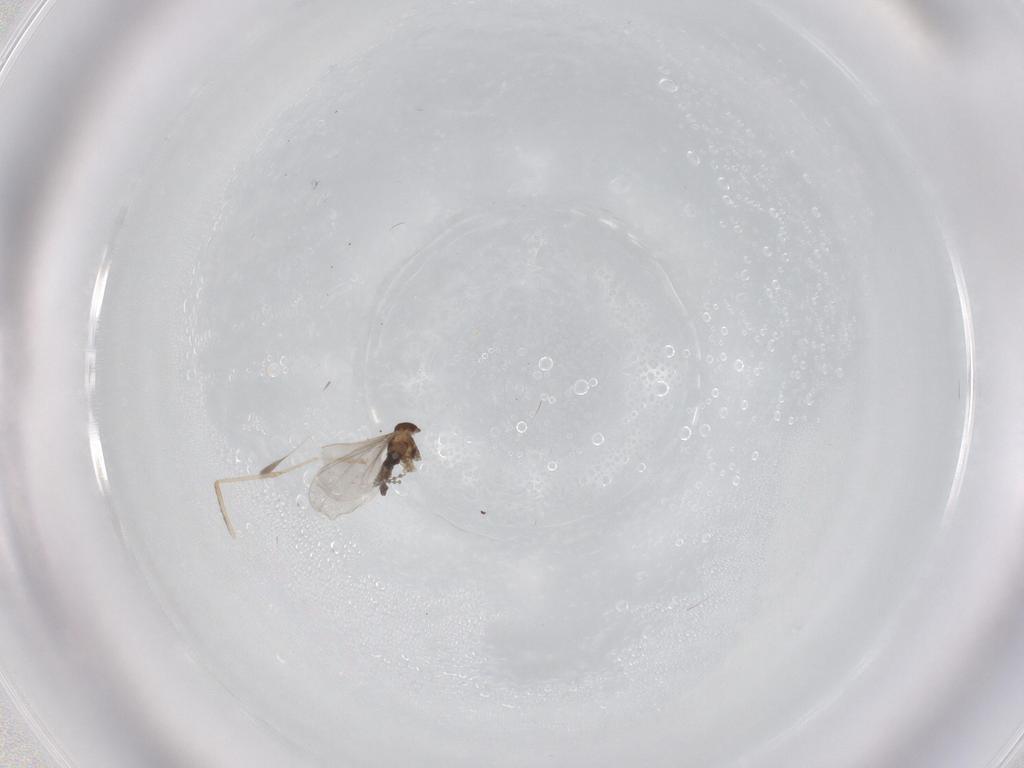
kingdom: Animalia
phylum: Arthropoda
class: Insecta
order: Diptera
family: Cecidomyiidae
